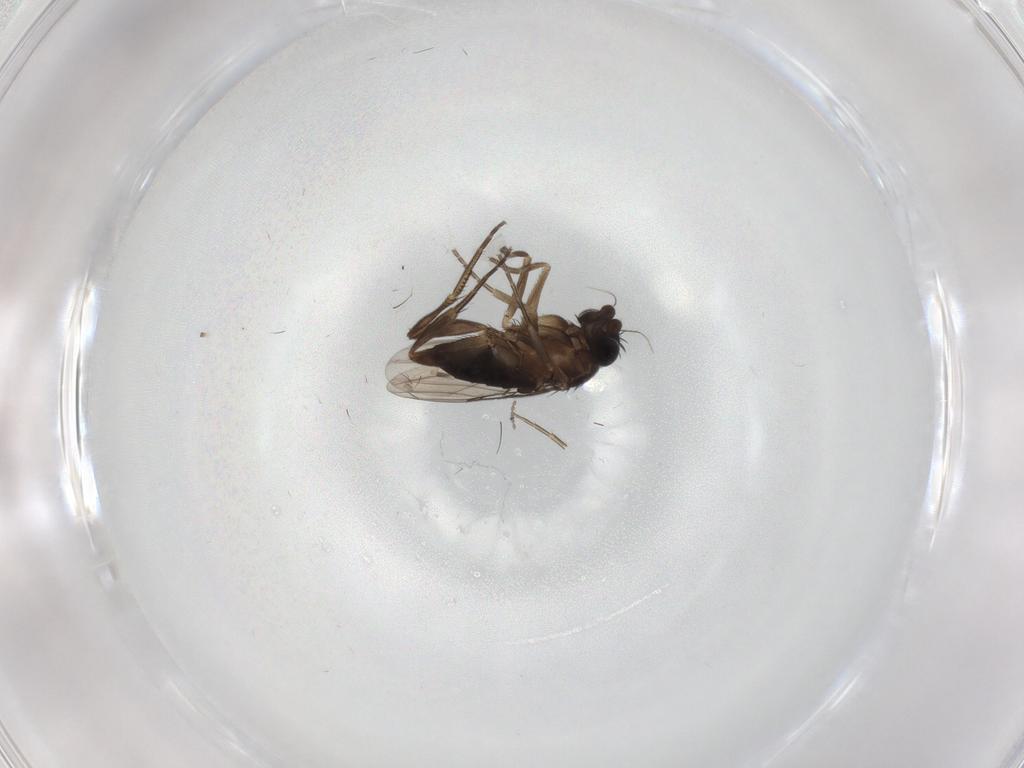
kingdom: Animalia
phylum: Arthropoda
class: Insecta
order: Diptera
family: Phoridae
